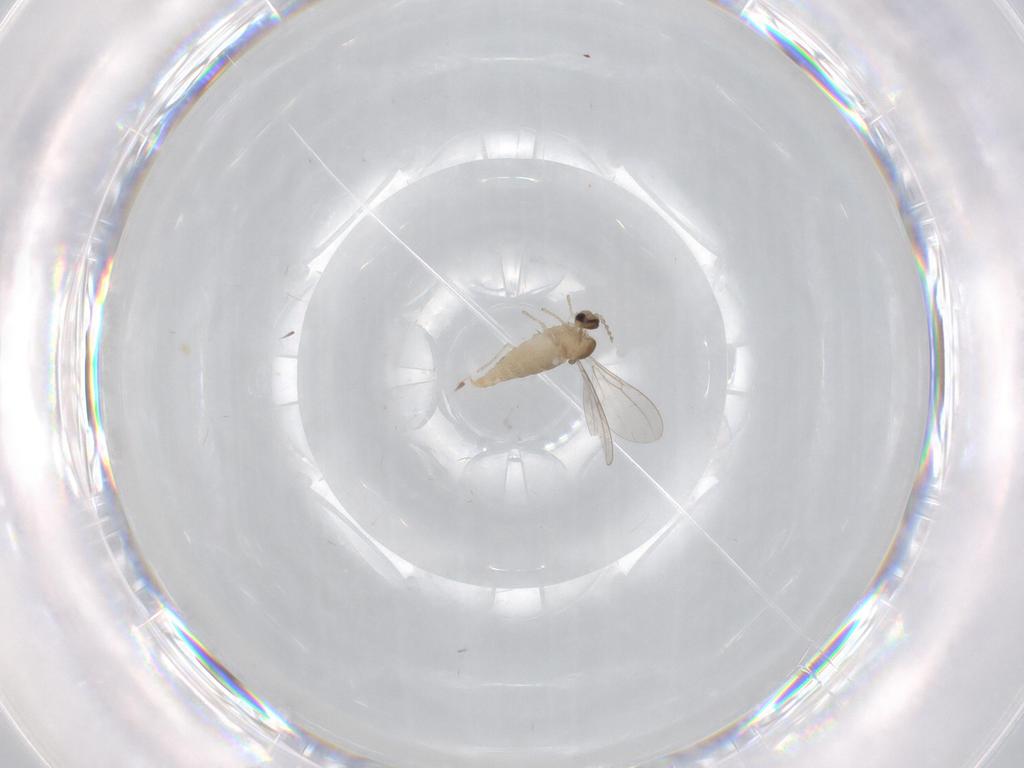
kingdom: Animalia
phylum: Arthropoda
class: Insecta
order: Diptera
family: Cecidomyiidae
